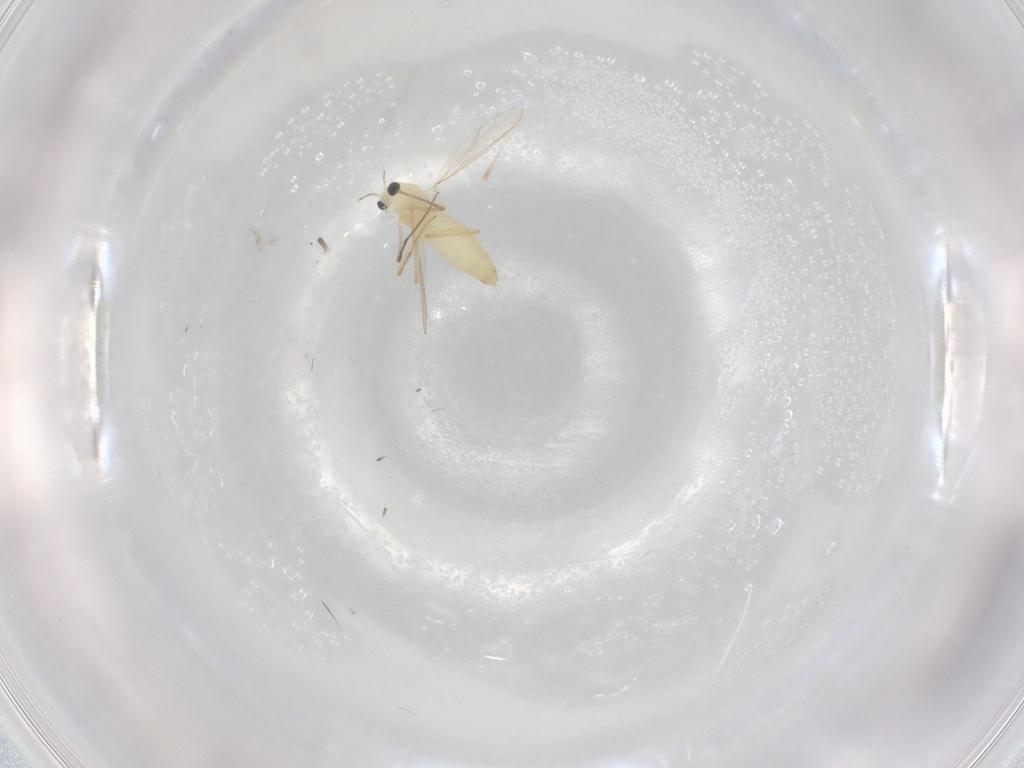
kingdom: Animalia
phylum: Arthropoda
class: Insecta
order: Diptera
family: Chironomidae
